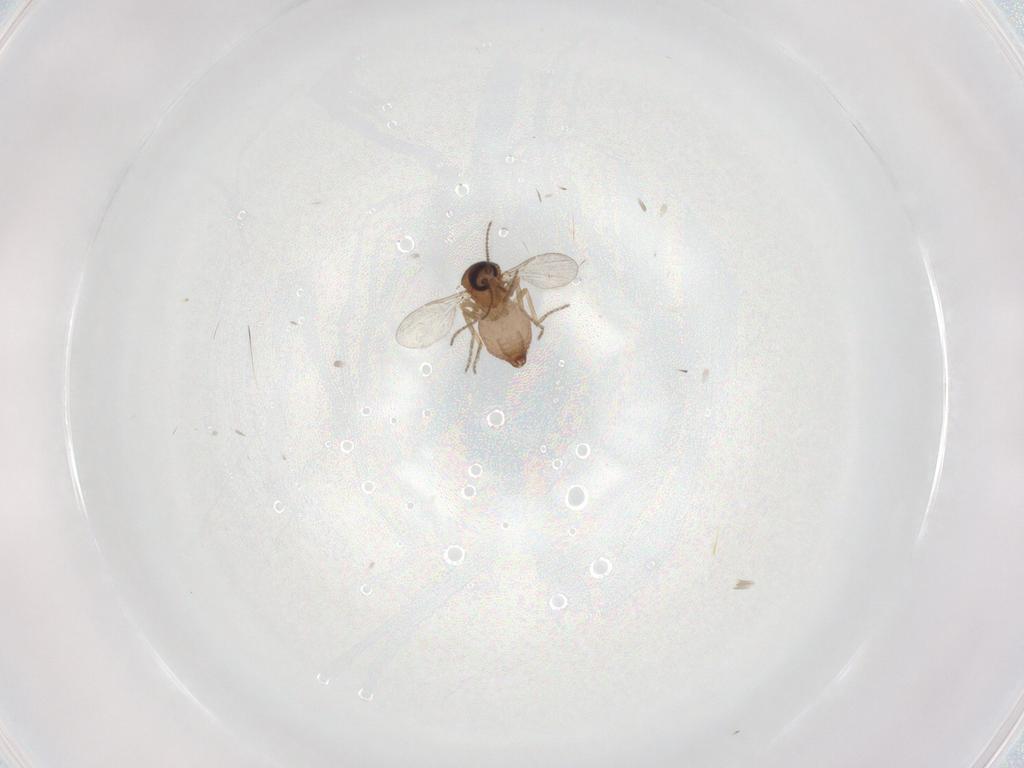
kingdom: Animalia
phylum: Arthropoda
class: Insecta
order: Diptera
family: Ceratopogonidae
